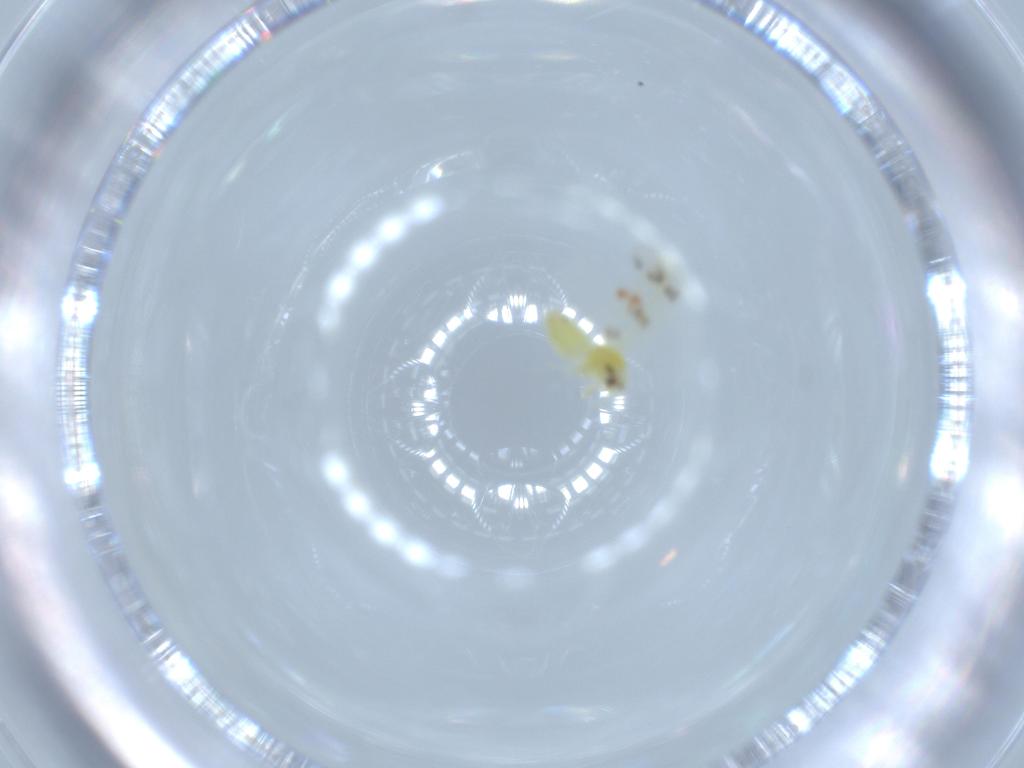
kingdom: Animalia
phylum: Arthropoda
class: Insecta
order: Hemiptera
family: Aleyrodidae
